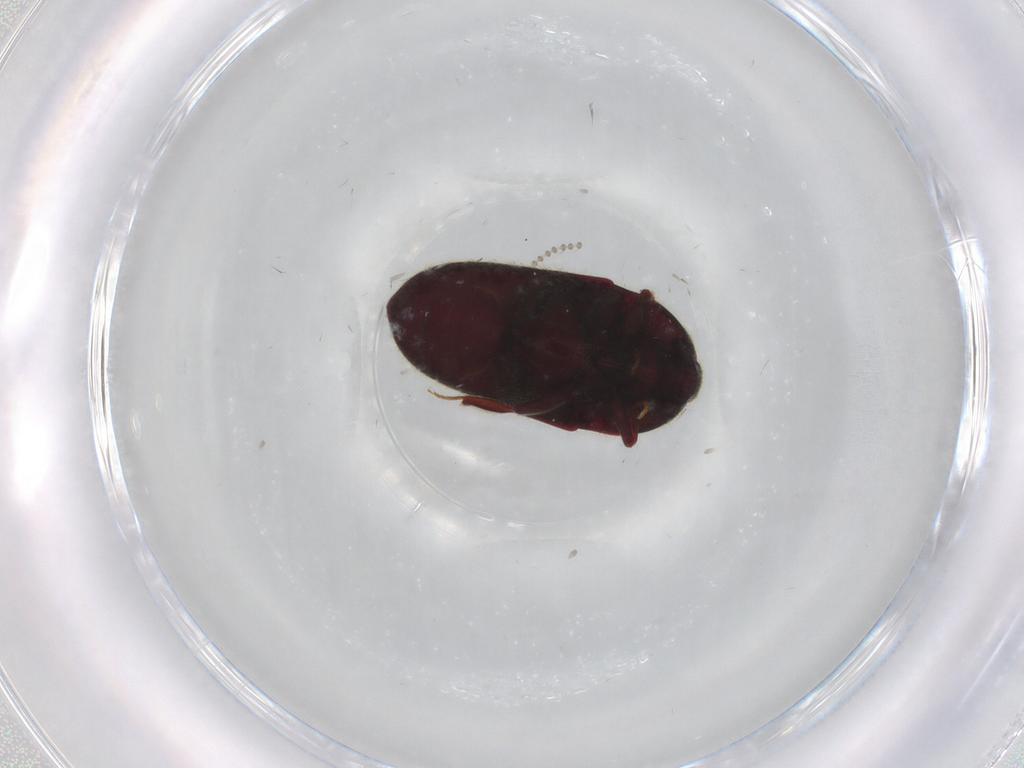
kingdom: Animalia
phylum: Arthropoda
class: Insecta
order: Coleoptera
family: Throscidae
